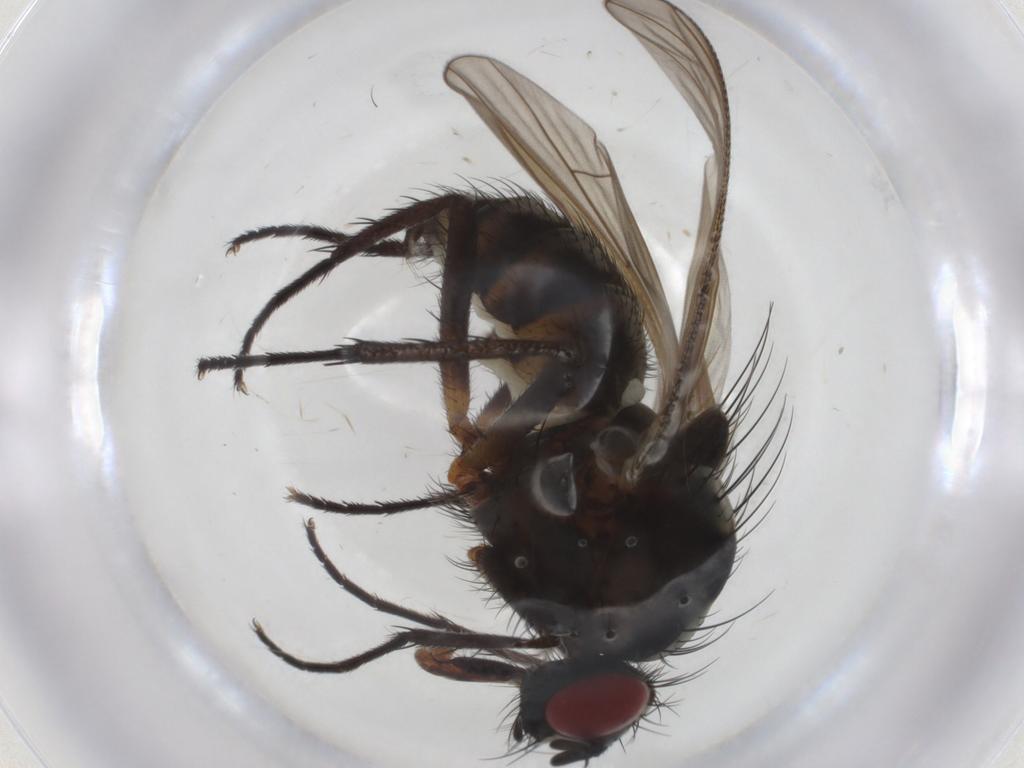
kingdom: Animalia
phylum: Arthropoda
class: Insecta
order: Diptera
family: Anthomyiidae
